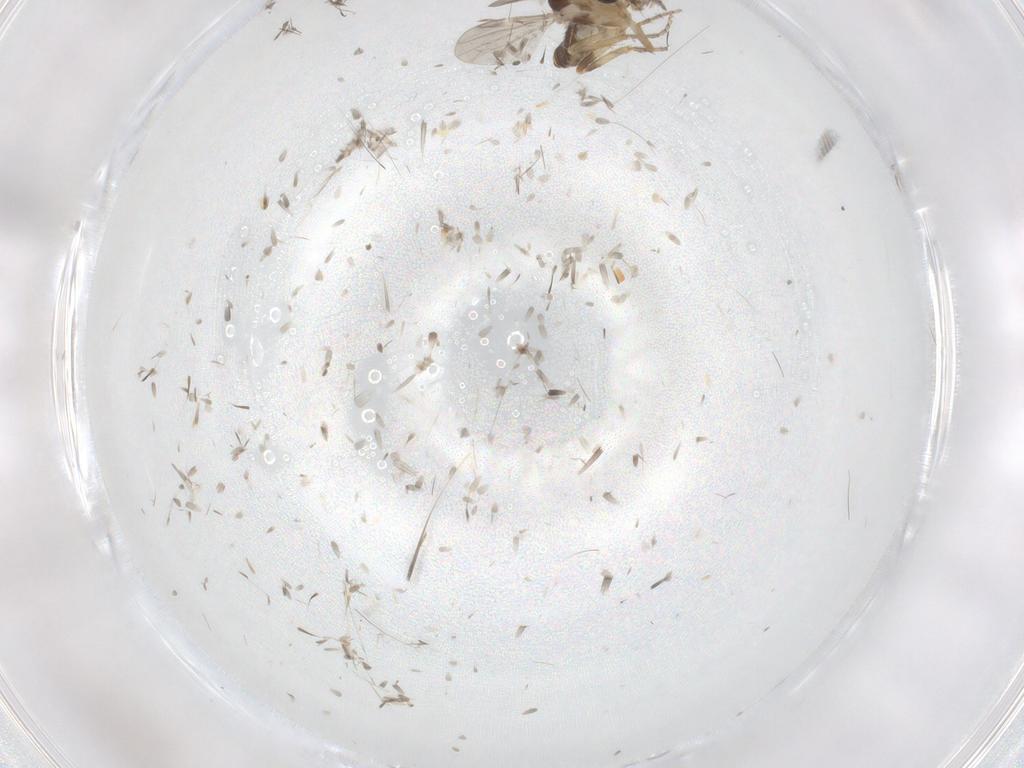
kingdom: Animalia
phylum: Arthropoda
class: Insecta
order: Diptera
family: Ceratopogonidae
